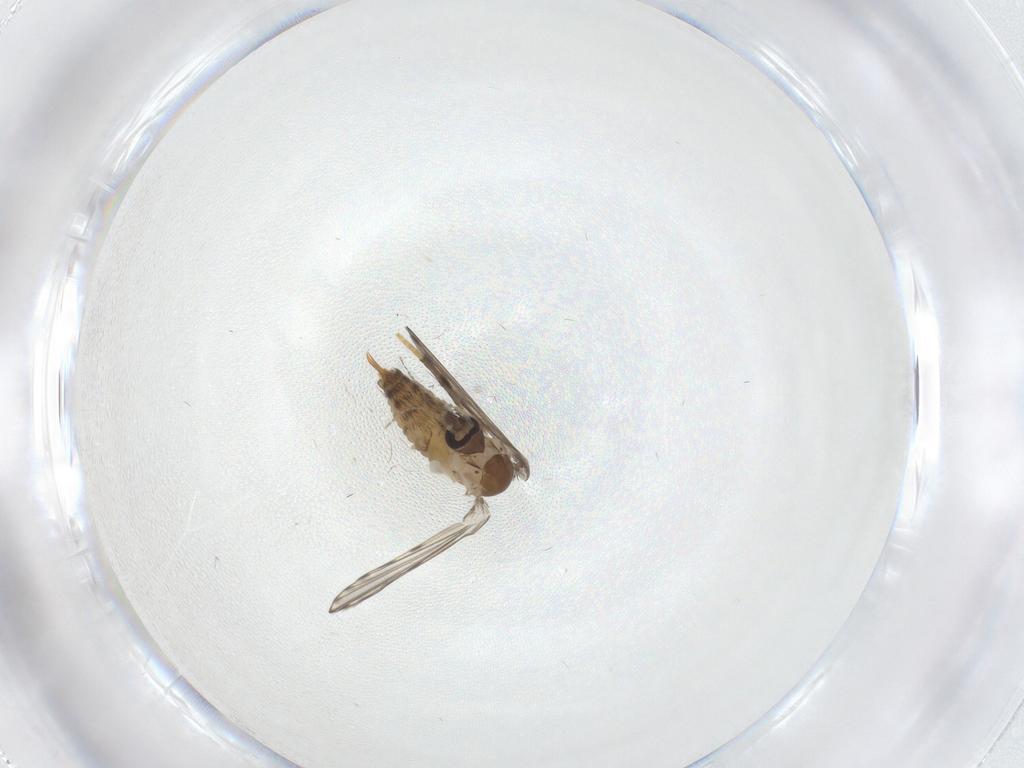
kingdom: Animalia
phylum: Arthropoda
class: Insecta
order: Diptera
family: Psychodidae
